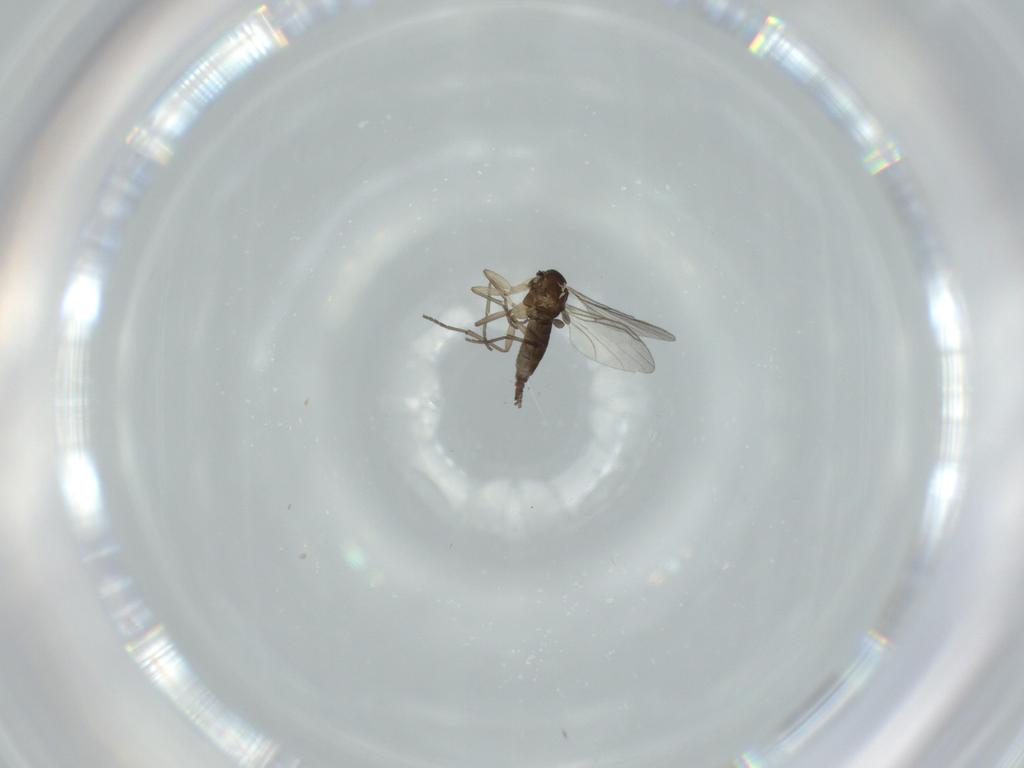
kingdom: Animalia
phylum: Arthropoda
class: Insecta
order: Diptera
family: Sciaridae
